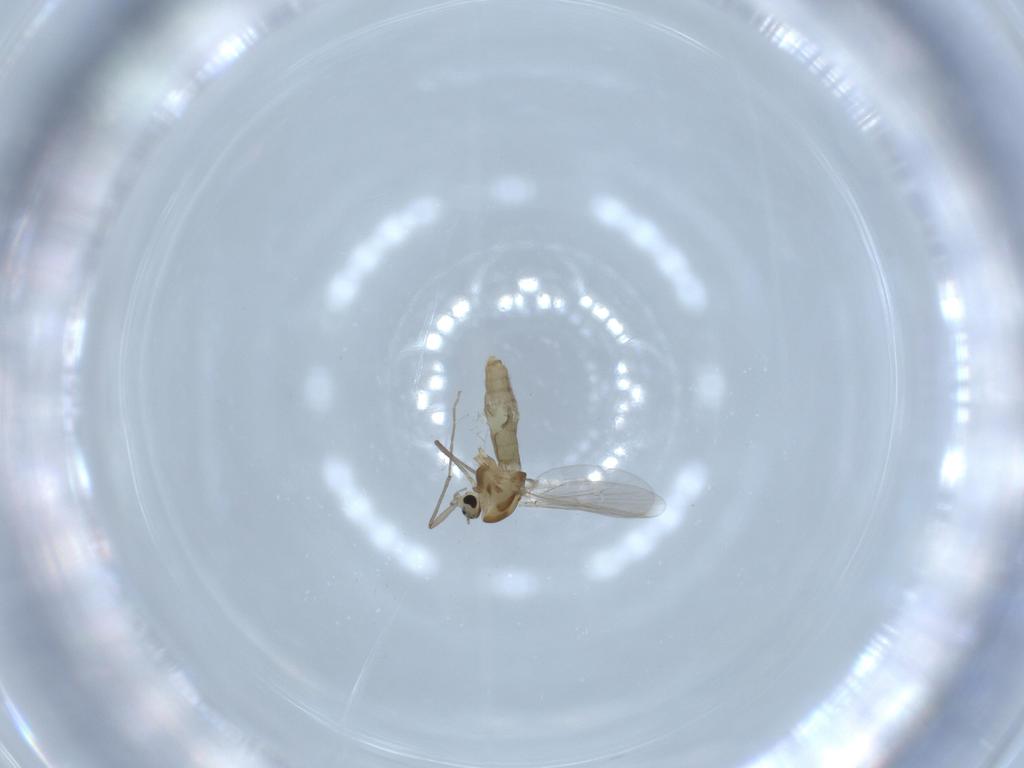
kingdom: Animalia
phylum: Arthropoda
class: Insecta
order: Diptera
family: Chironomidae
